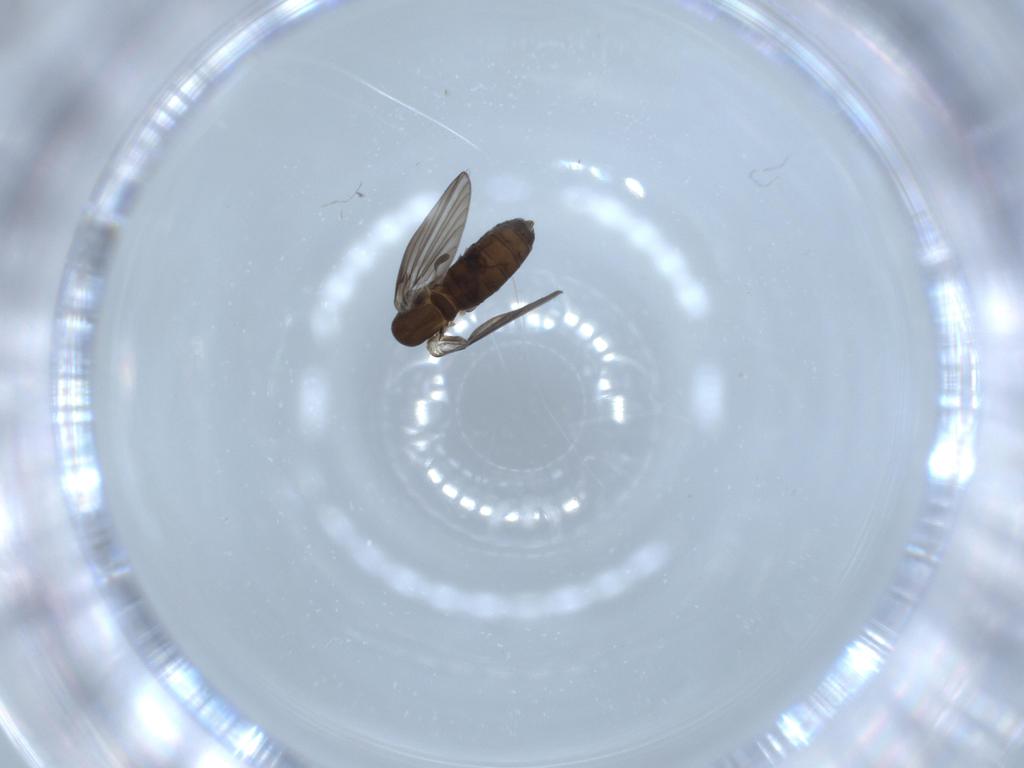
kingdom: Animalia
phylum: Arthropoda
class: Insecta
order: Diptera
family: Psychodidae
